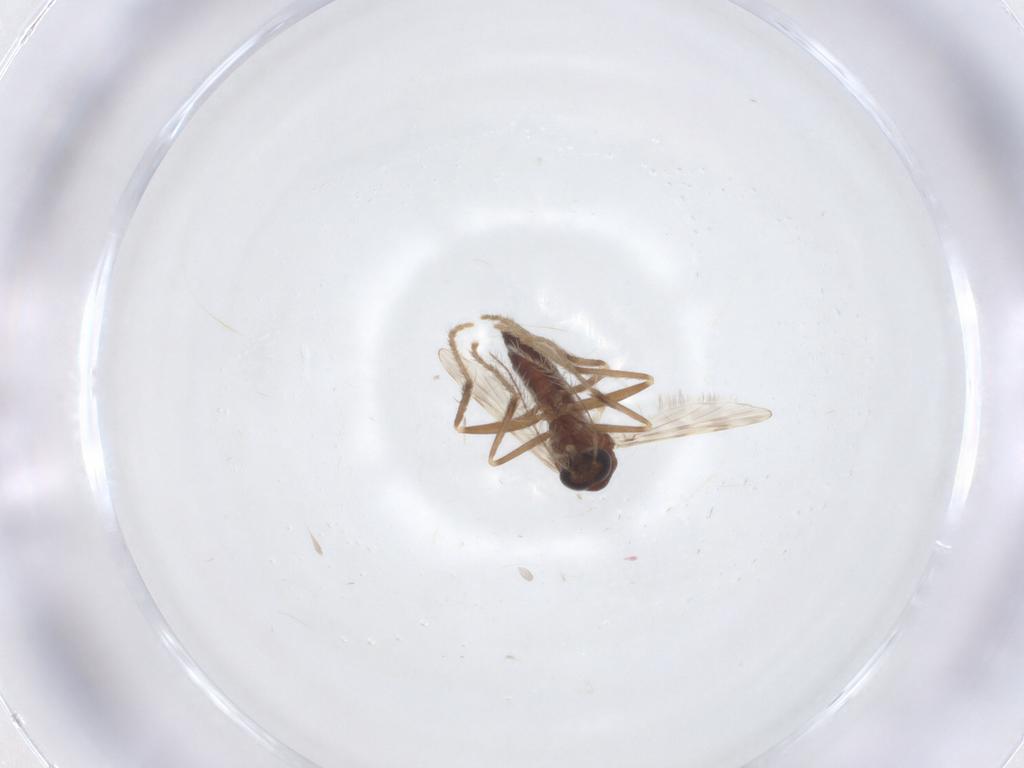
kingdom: Animalia
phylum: Arthropoda
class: Insecta
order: Diptera
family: Corethrellidae
